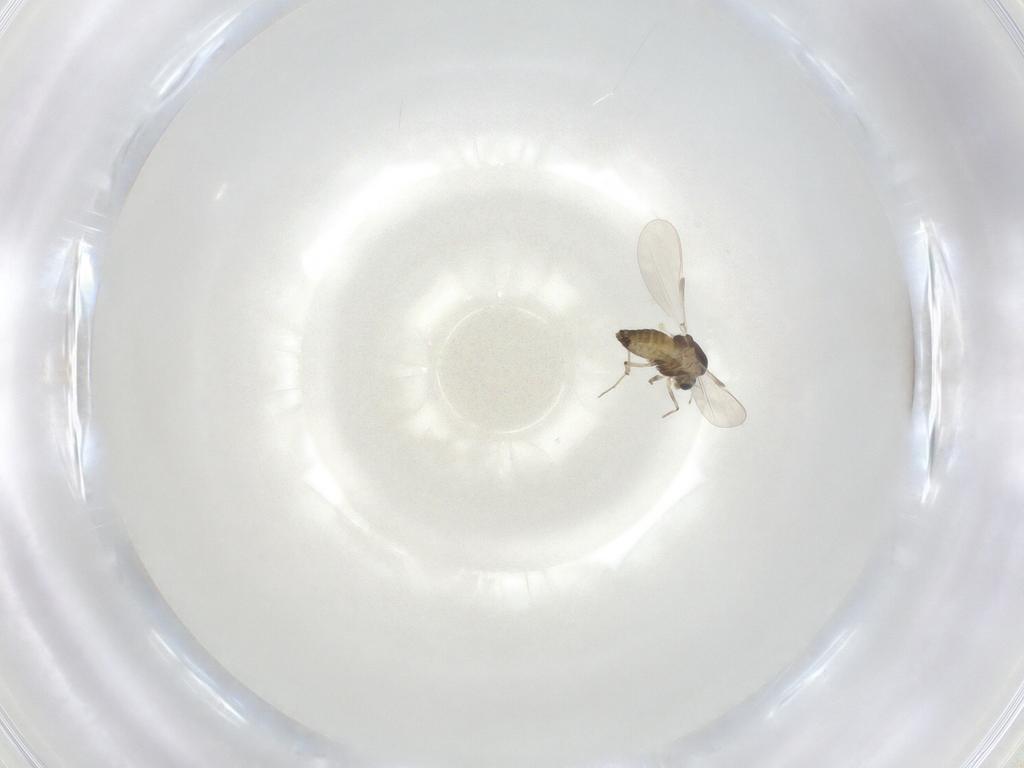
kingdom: Animalia
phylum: Arthropoda
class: Insecta
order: Diptera
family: Chironomidae
